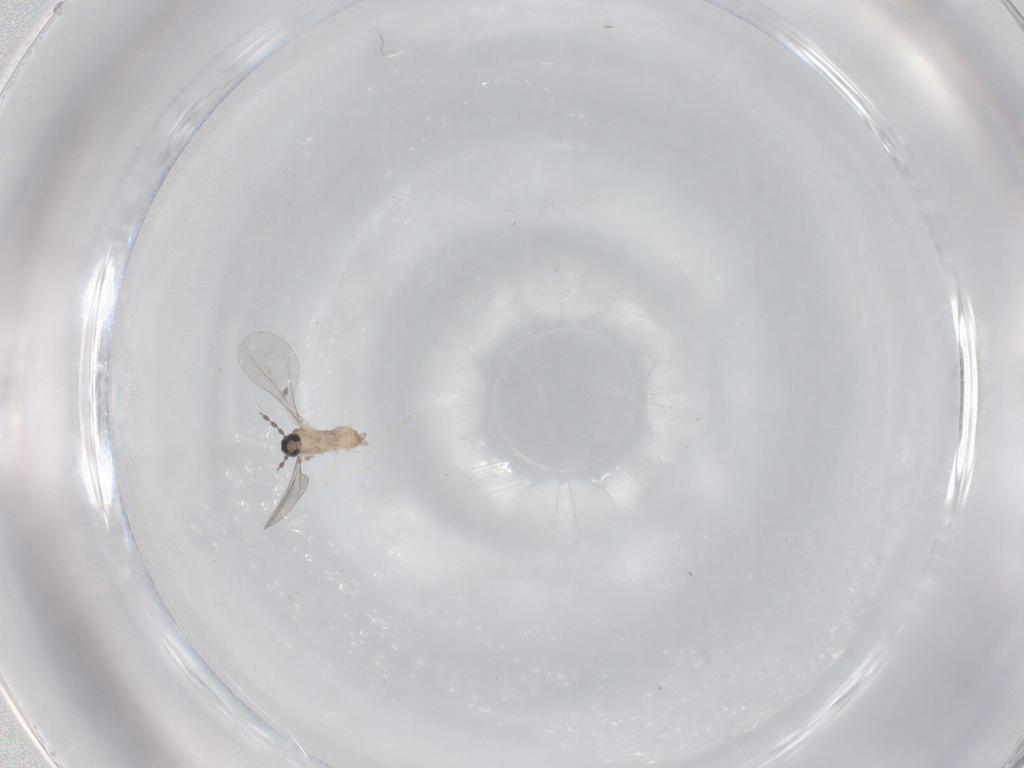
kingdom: Animalia
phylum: Arthropoda
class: Insecta
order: Diptera
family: Cecidomyiidae
